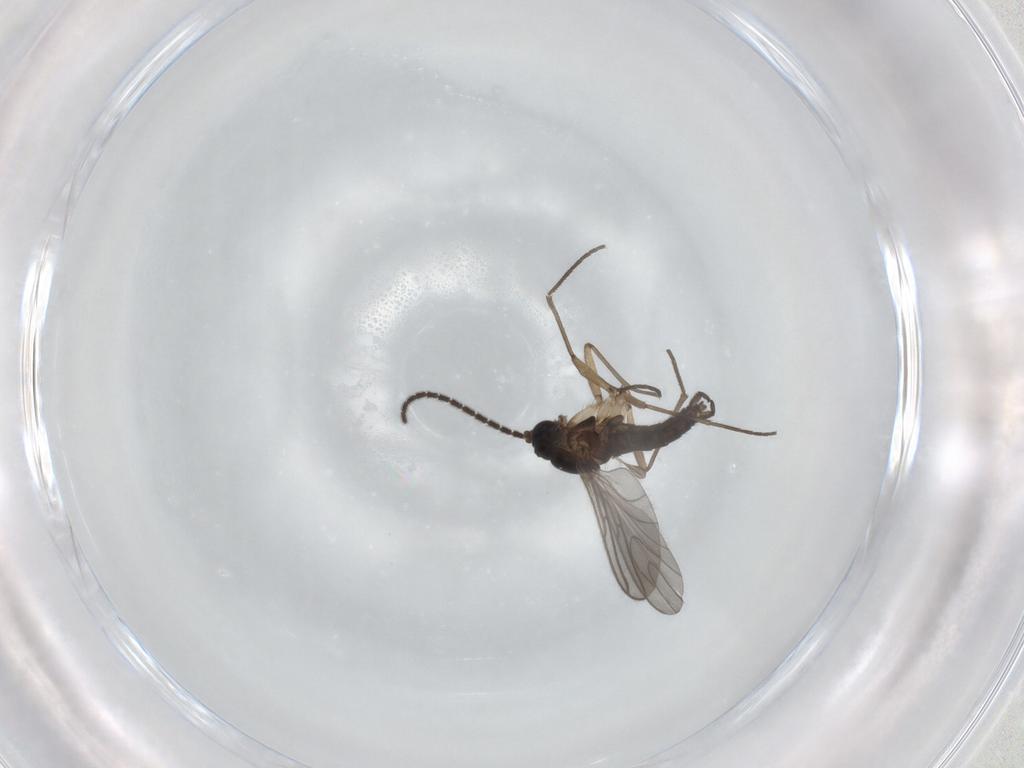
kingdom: Animalia
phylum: Arthropoda
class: Insecta
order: Diptera
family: Sciaridae
